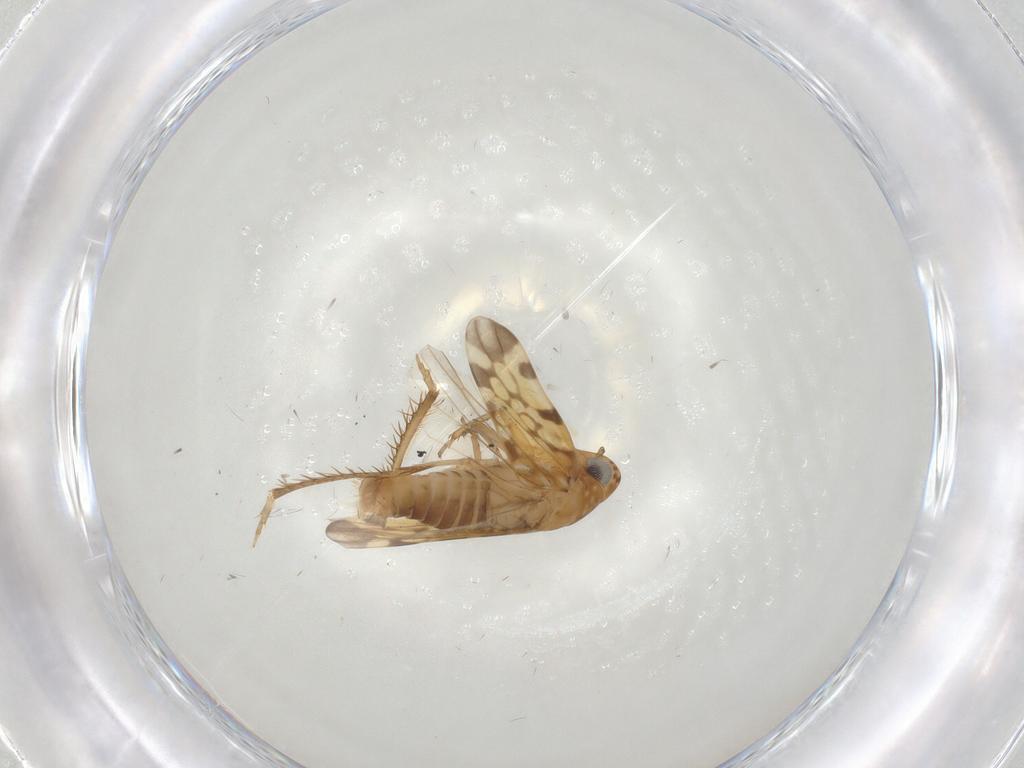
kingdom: Animalia
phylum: Arthropoda
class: Insecta
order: Hemiptera
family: Cicadellidae
